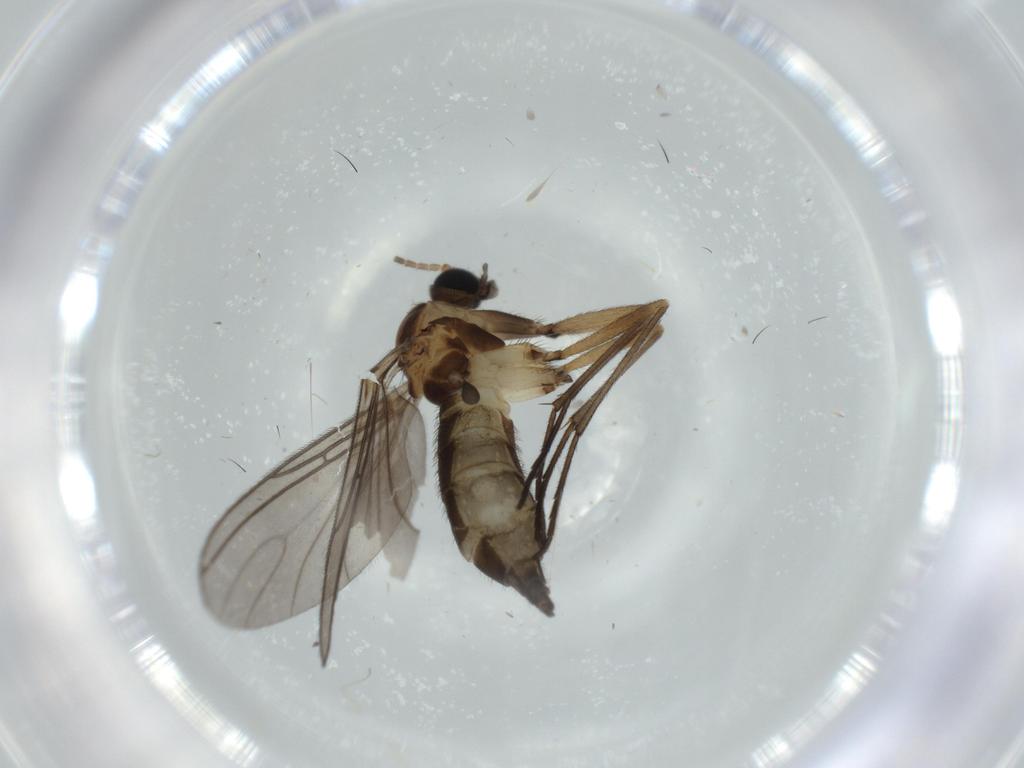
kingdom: Animalia
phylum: Arthropoda
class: Insecta
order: Diptera
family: Sciaridae
